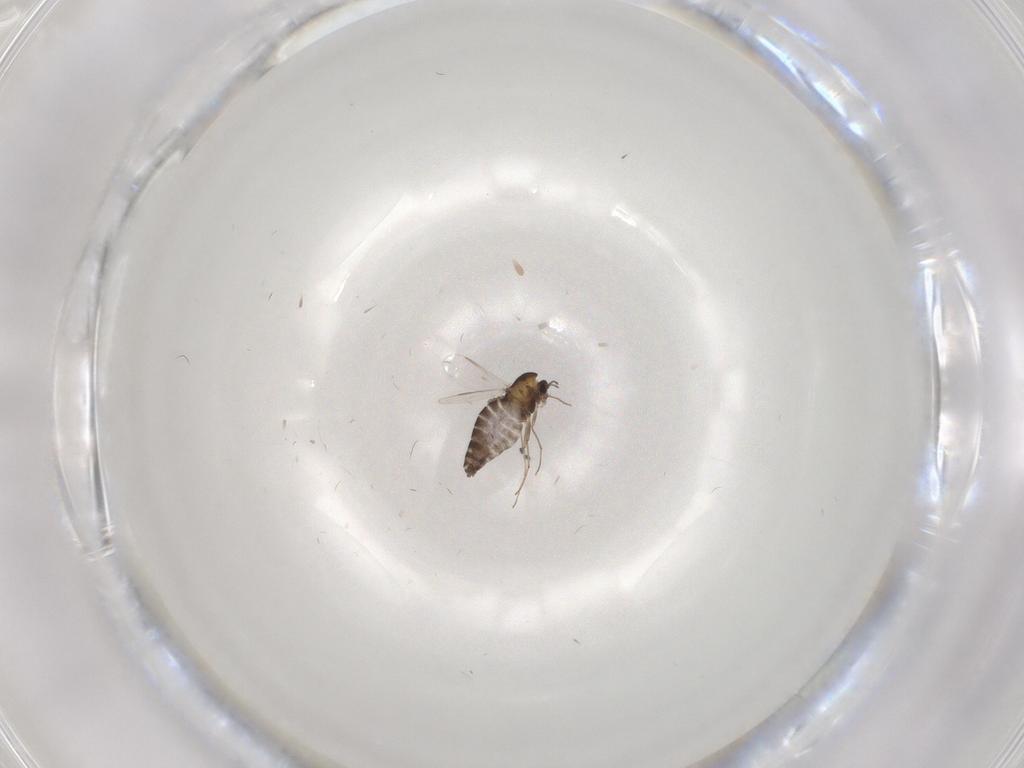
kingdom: Animalia
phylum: Arthropoda
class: Insecta
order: Diptera
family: Cecidomyiidae
